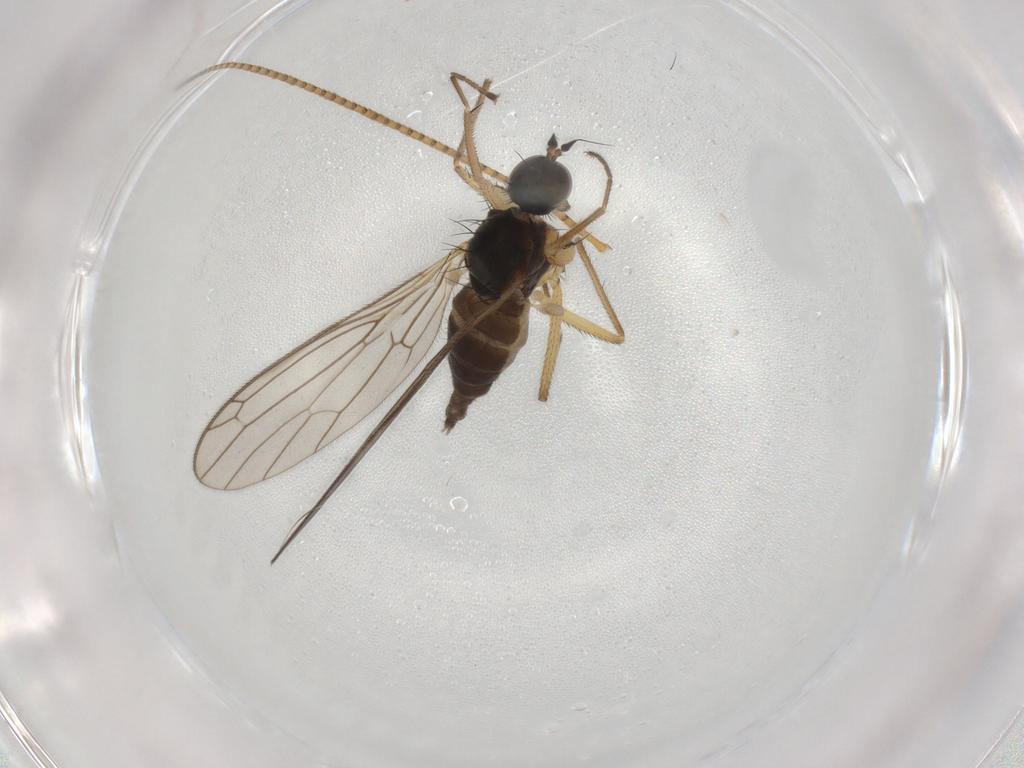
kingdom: Animalia
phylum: Arthropoda
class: Insecta
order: Diptera
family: Empididae
